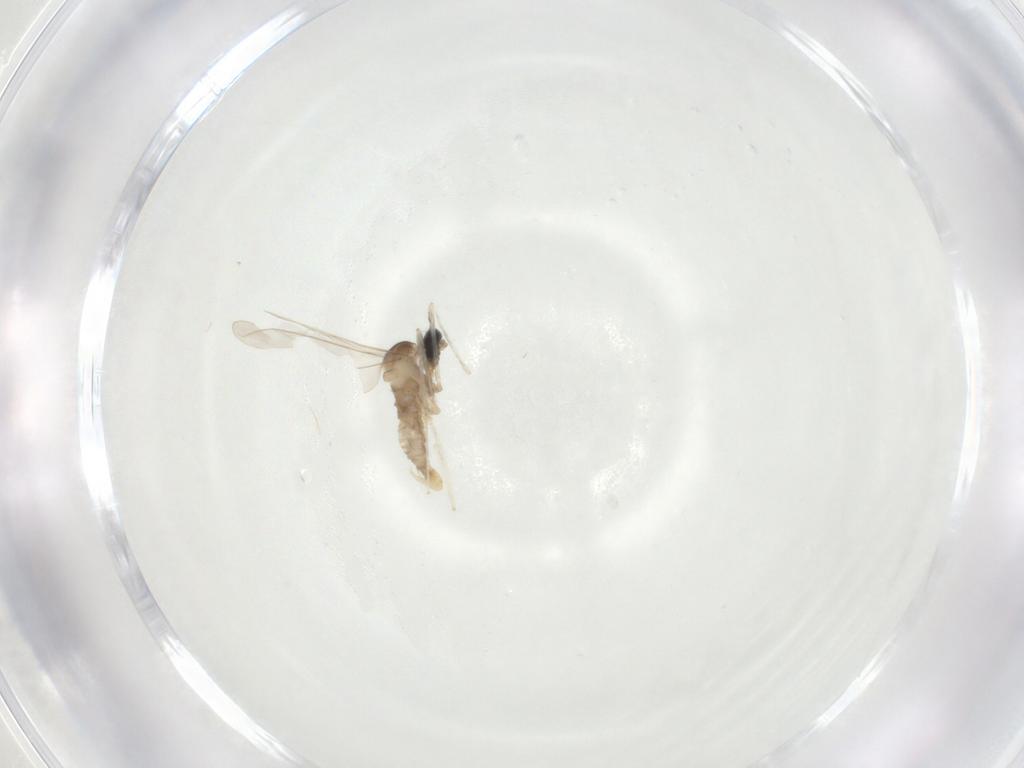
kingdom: Animalia
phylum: Arthropoda
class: Insecta
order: Diptera
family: Cecidomyiidae
